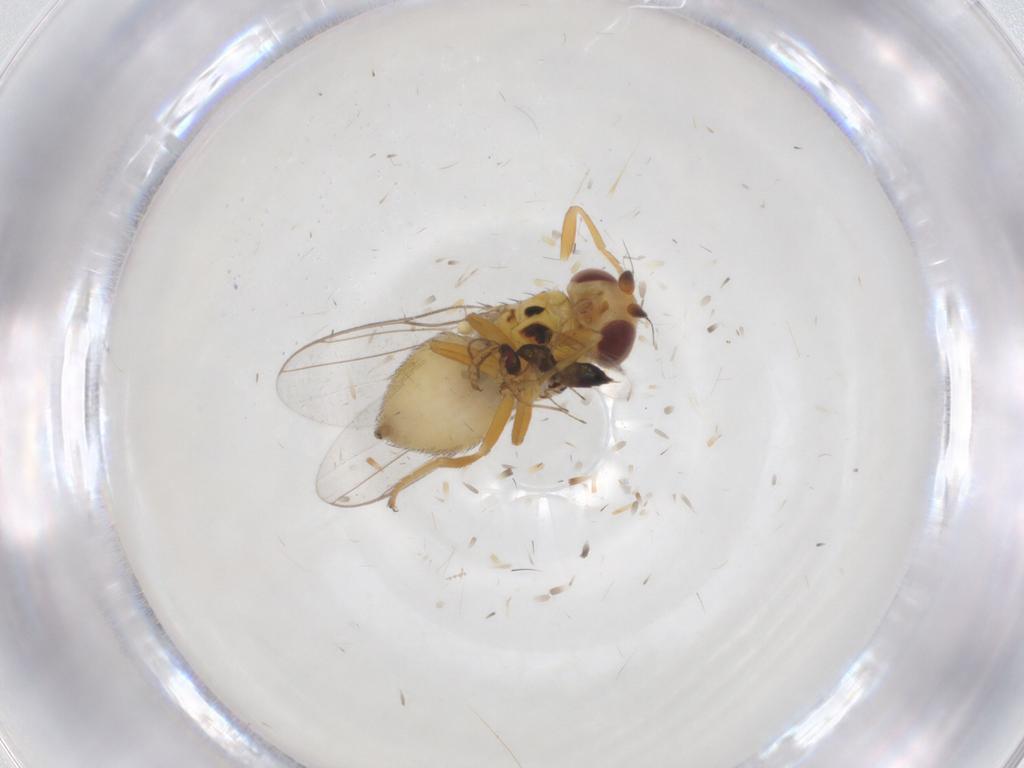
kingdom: Animalia
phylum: Arthropoda
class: Insecta
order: Diptera
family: Chloropidae
